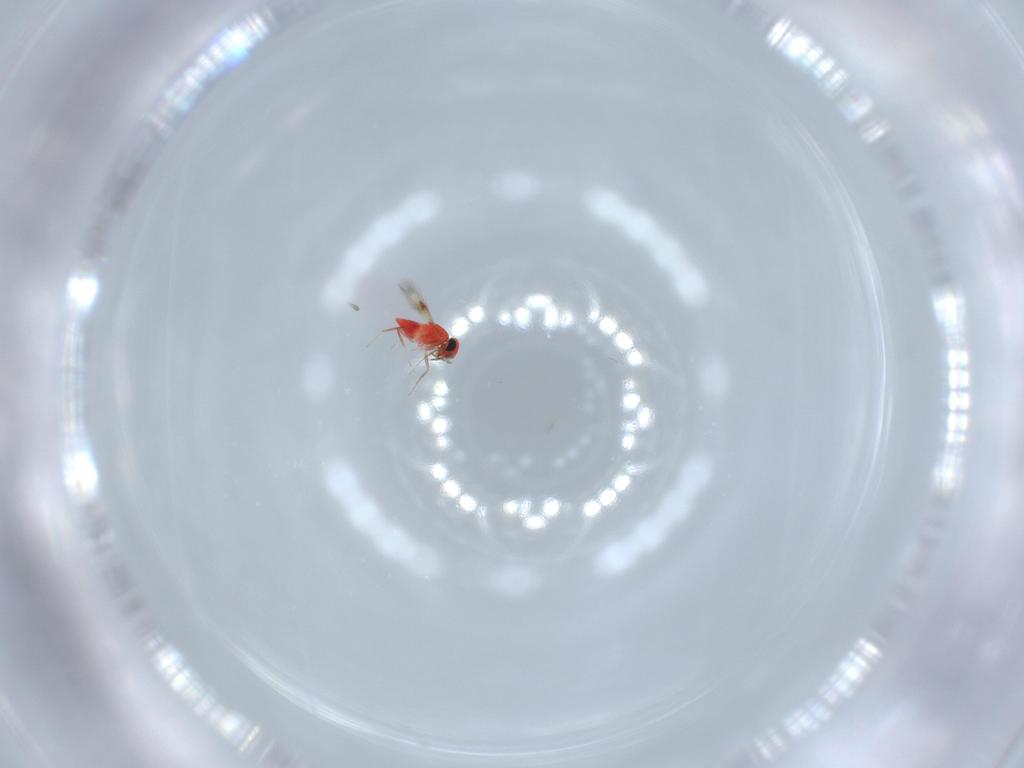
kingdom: Animalia
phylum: Arthropoda
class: Insecta
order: Hymenoptera
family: Trichogrammatidae
